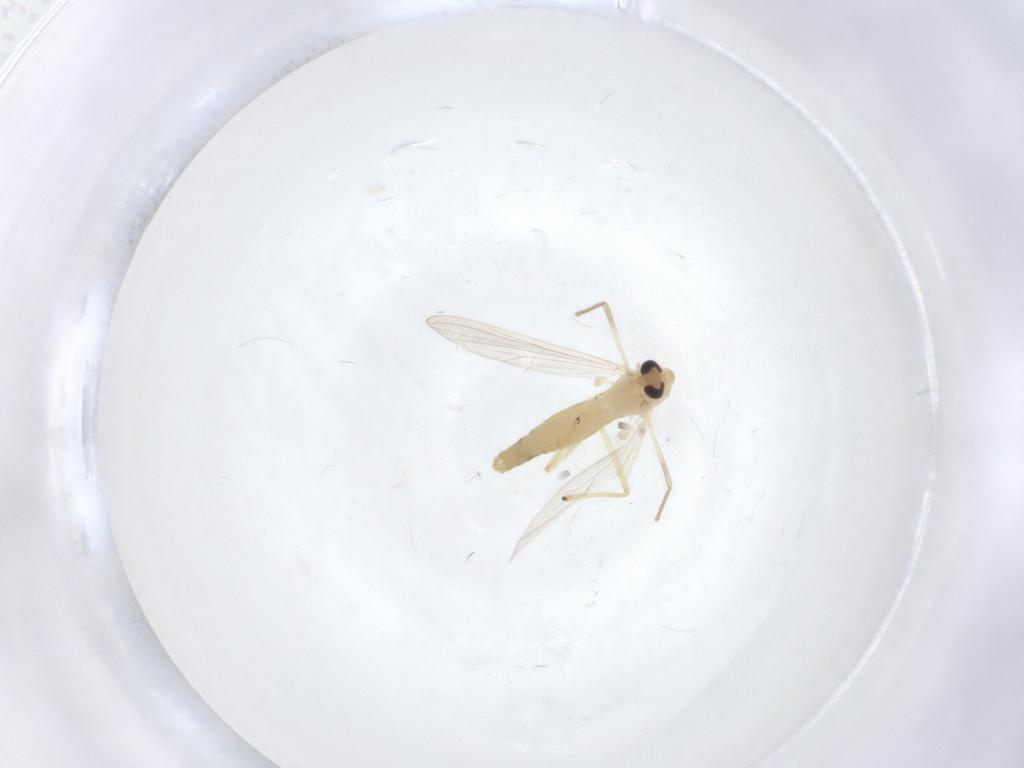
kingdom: Animalia
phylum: Arthropoda
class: Insecta
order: Diptera
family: Chironomidae
